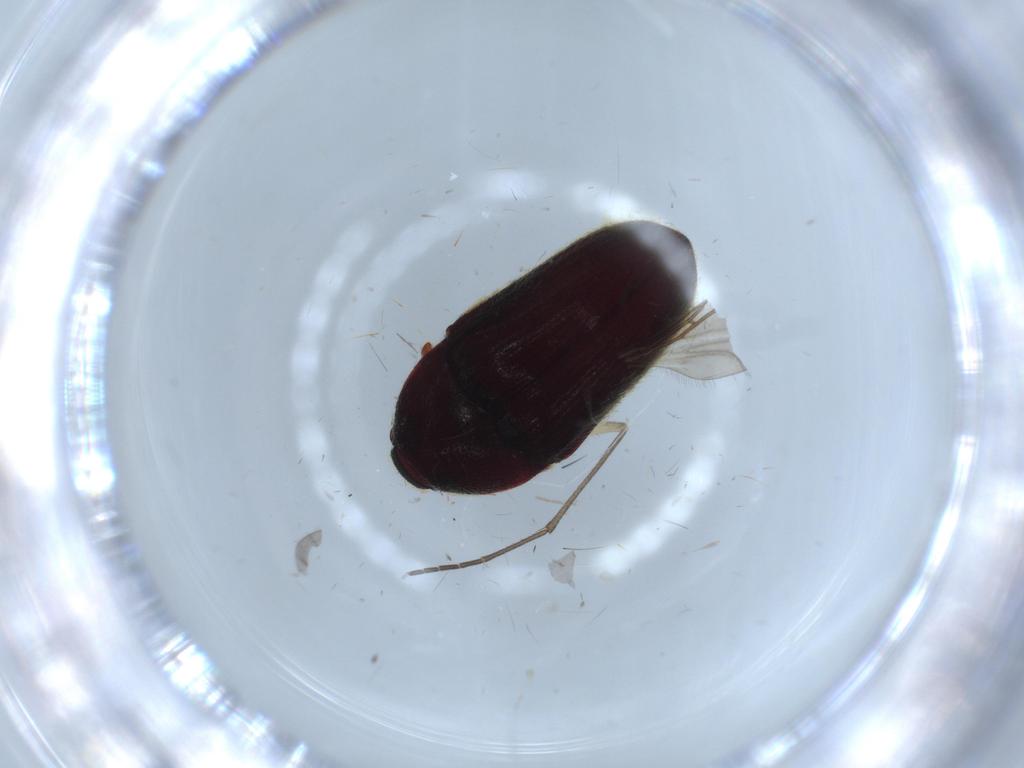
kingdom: Animalia
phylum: Arthropoda
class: Insecta
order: Coleoptera
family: Throscidae
